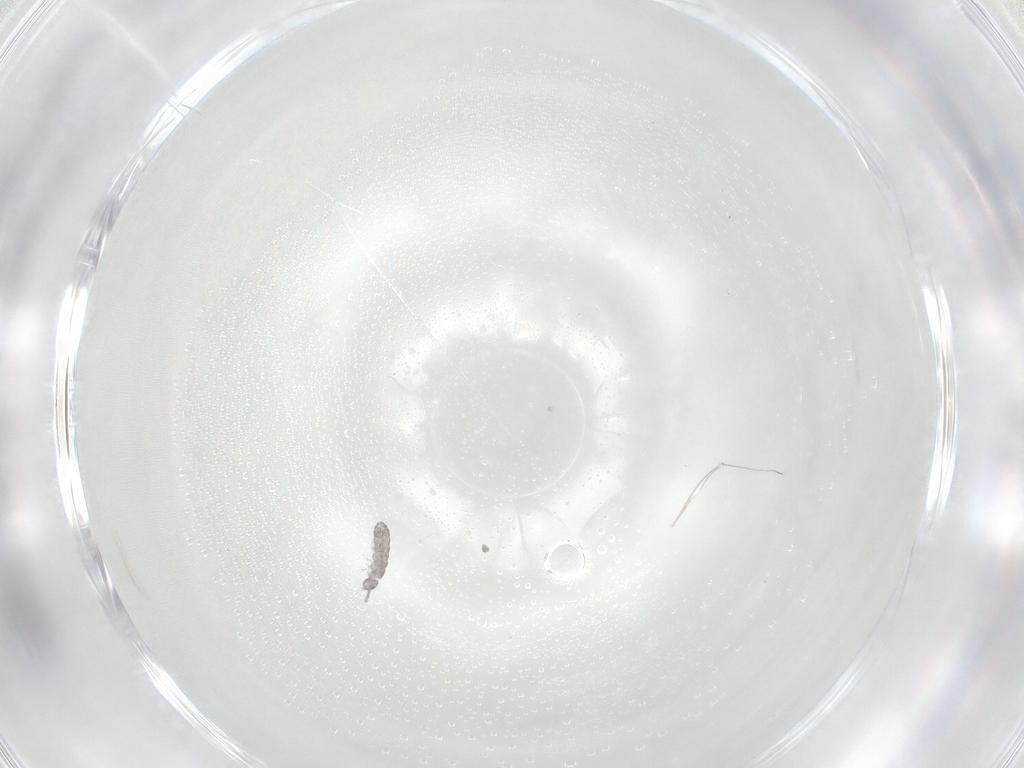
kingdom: Animalia
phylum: Arthropoda
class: Collembola
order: Entomobryomorpha
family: Isotomidae
